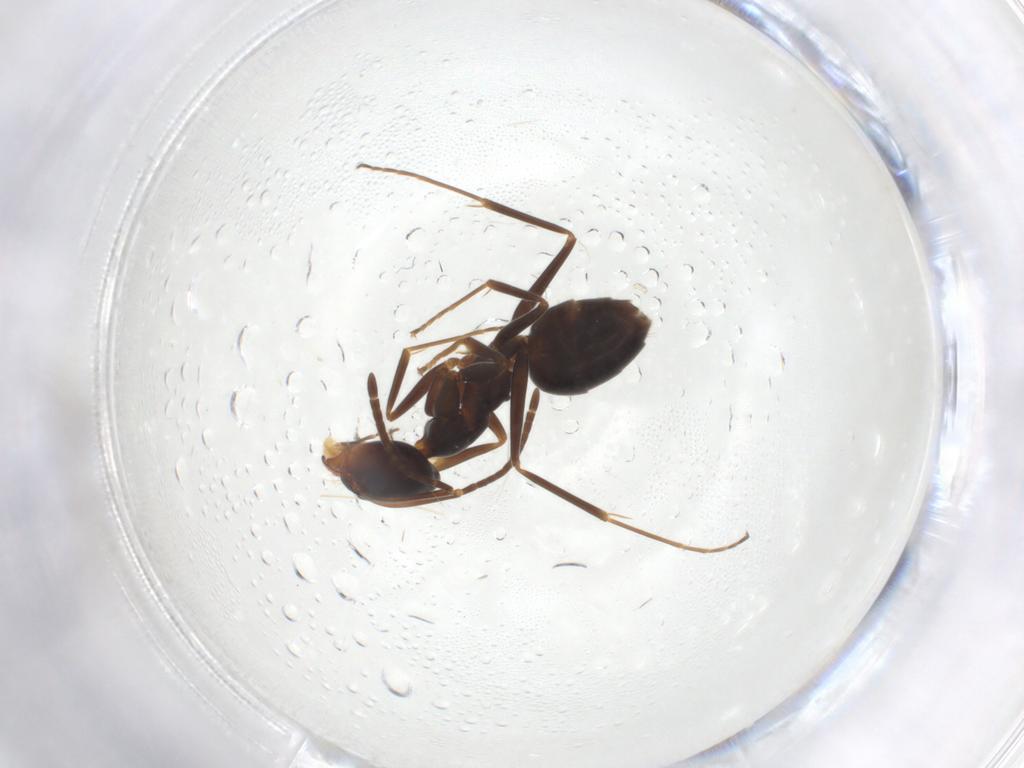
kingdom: Animalia
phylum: Arthropoda
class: Insecta
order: Hymenoptera
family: Formicidae
